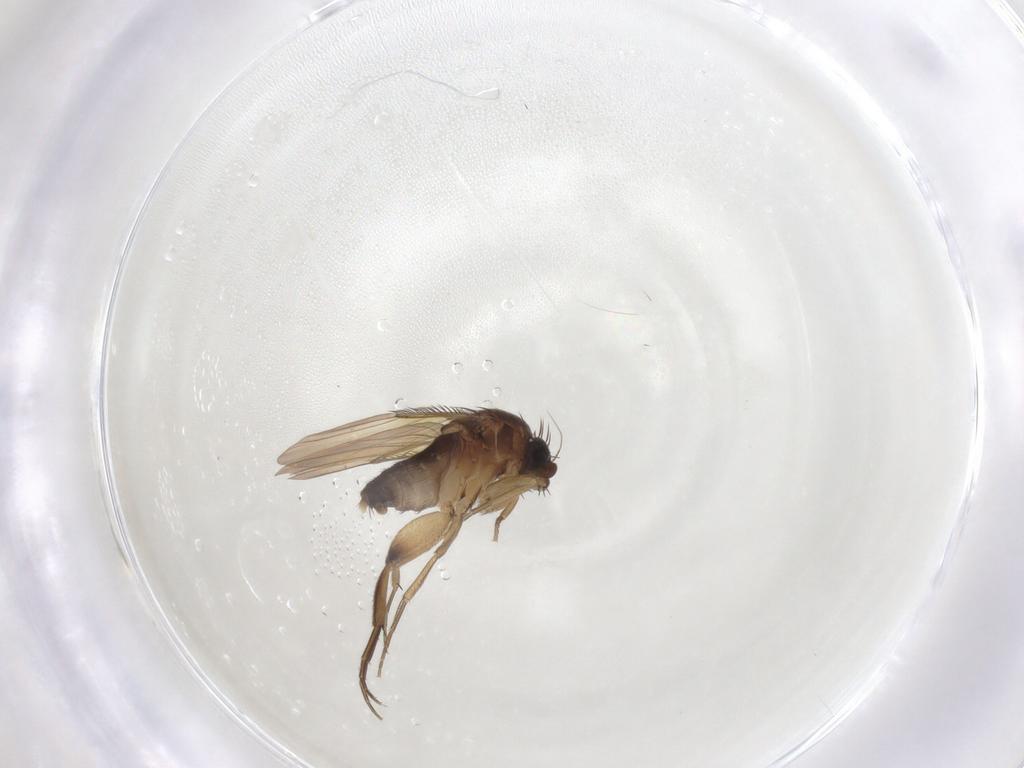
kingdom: Animalia
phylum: Arthropoda
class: Insecta
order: Diptera
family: Phoridae
